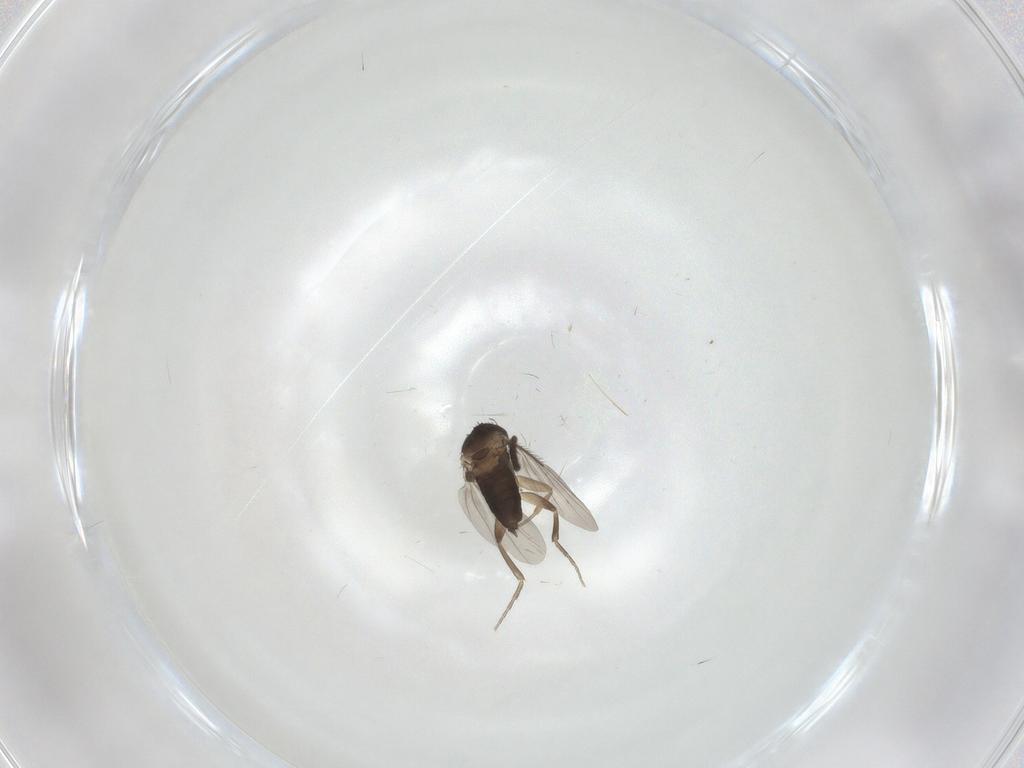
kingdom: Animalia
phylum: Arthropoda
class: Insecta
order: Diptera
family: Phoridae
